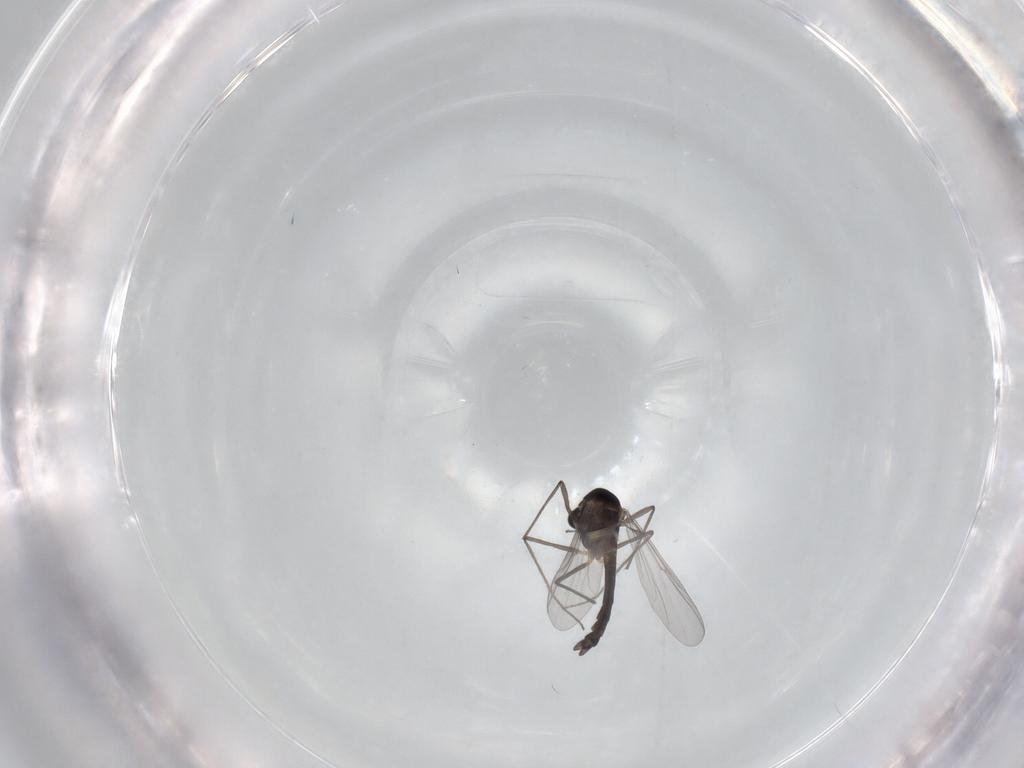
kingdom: Animalia
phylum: Arthropoda
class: Insecta
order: Diptera
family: Chironomidae
